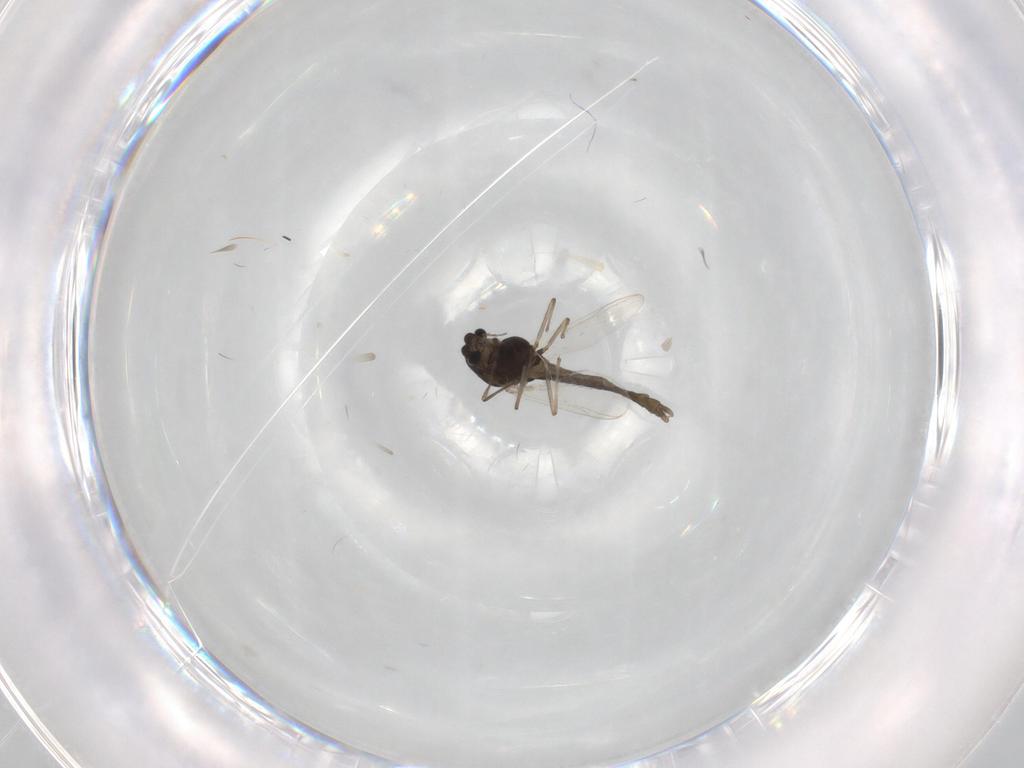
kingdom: Animalia
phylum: Arthropoda
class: Insecta
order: Diptera
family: Chironomidae
